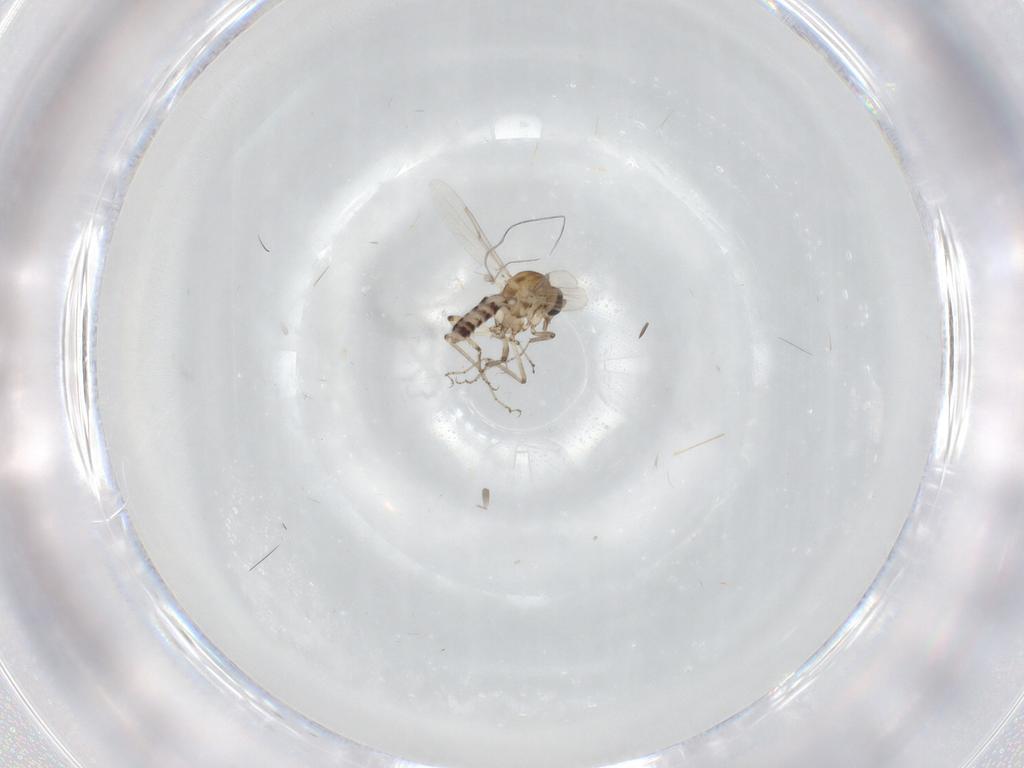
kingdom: Animalia
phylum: Arthropoda
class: Insecta
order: Diptera
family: Ceratopogonidae
